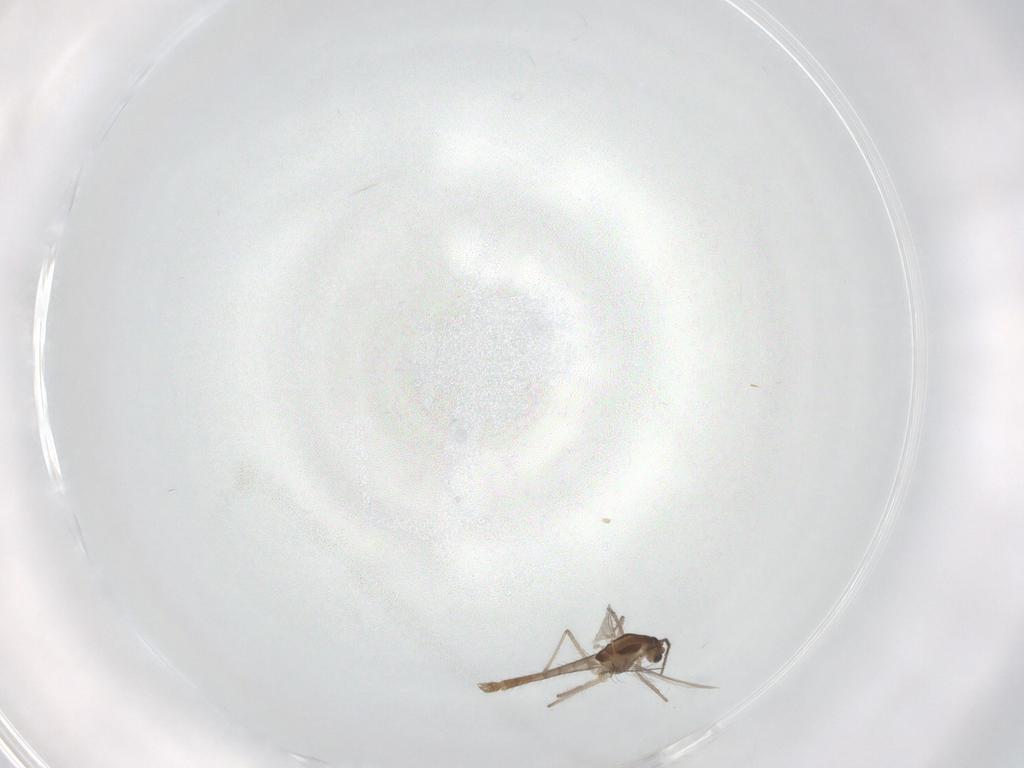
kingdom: Animalia
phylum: Arthropoda
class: Insecta
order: Diptera
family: Chironomidae
